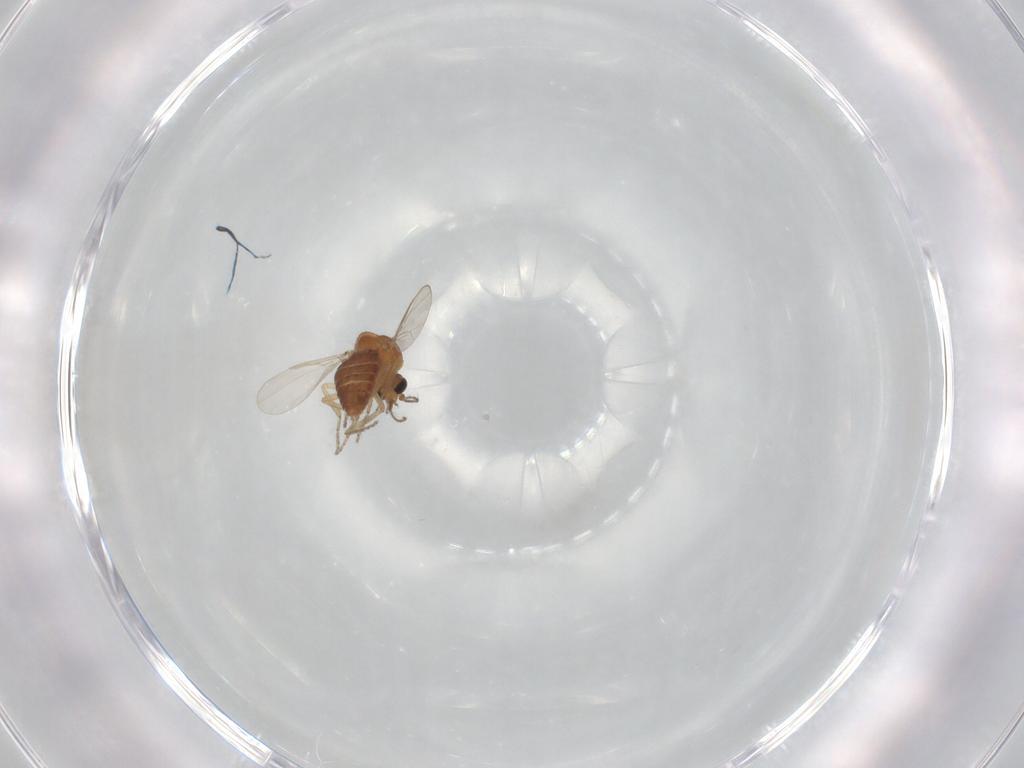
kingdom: Animalia
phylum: Arthropoda
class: Insecta
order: Diptera
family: Ceratopogonidae
